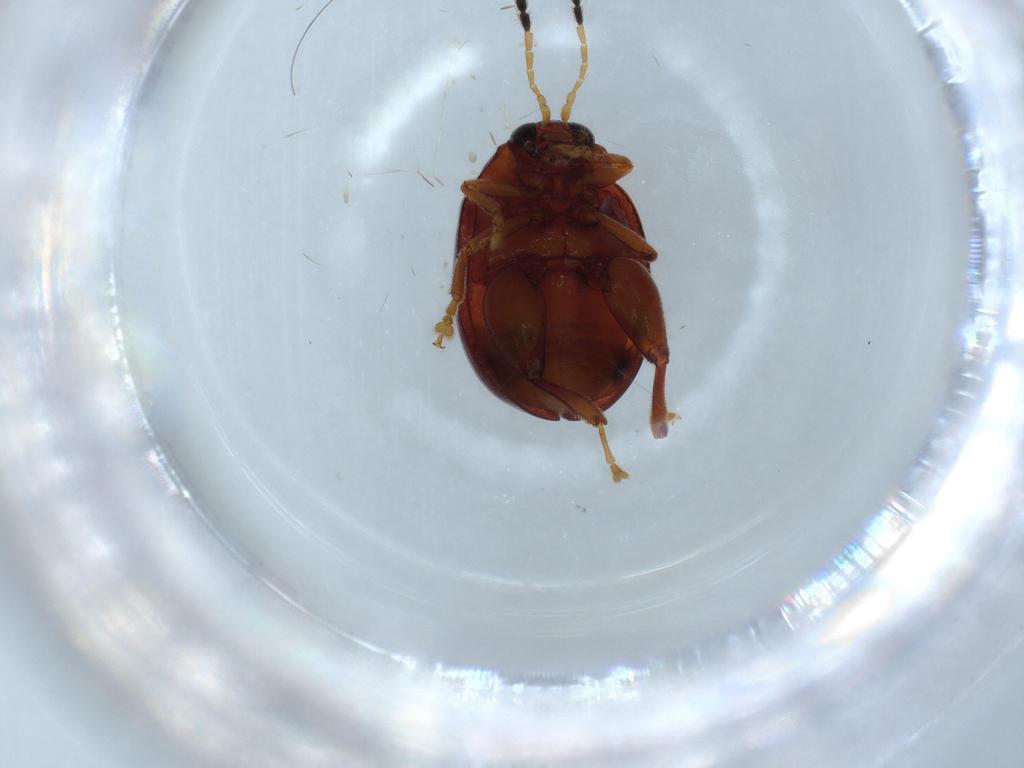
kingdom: Animalia
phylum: Arthropoda
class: Insecta
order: Coleoptera
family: Chrysomelidae
